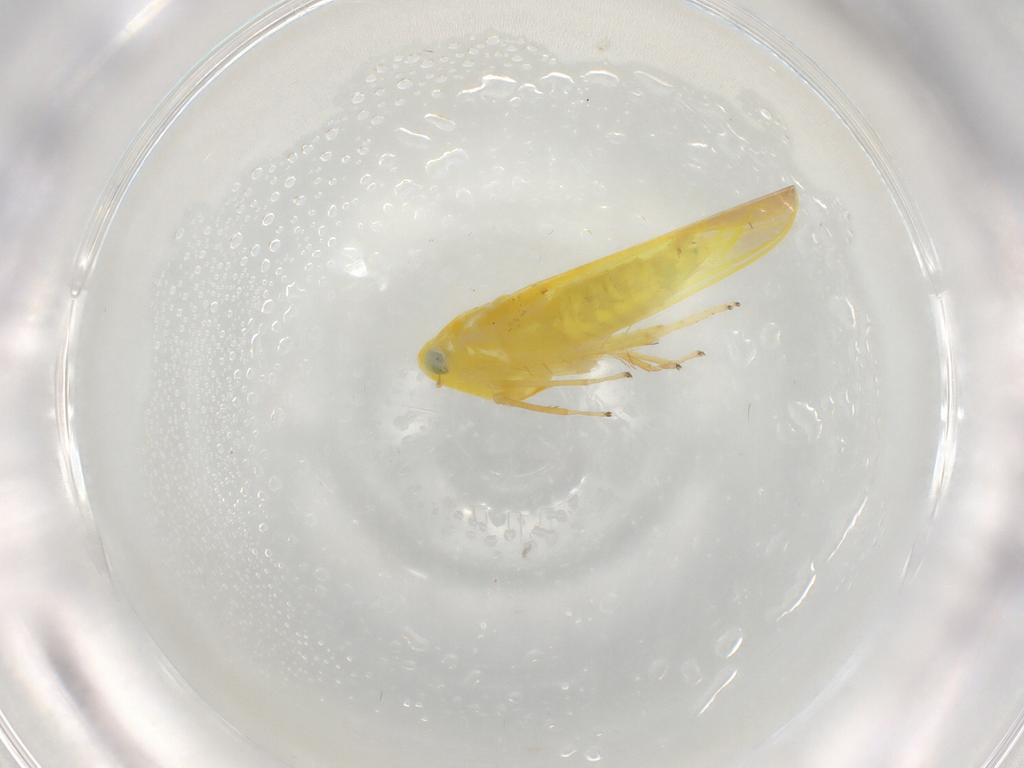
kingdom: Animalia
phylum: Arthropoda
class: Insecta
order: Hemiptera
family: Cicadellidae
